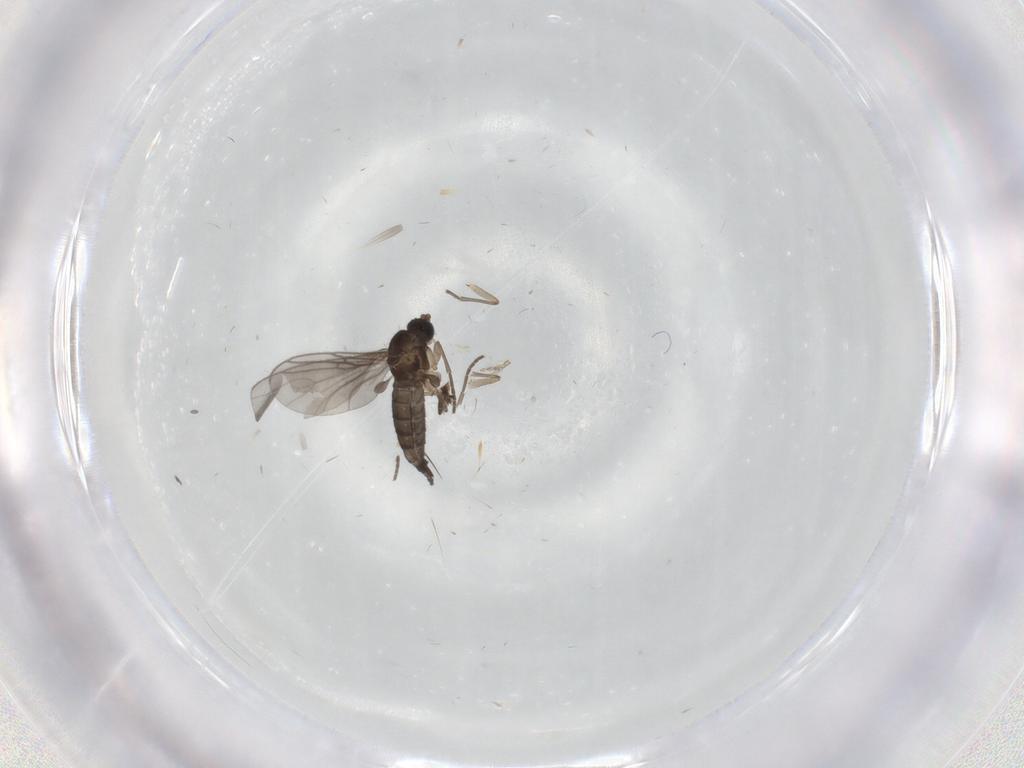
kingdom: Animalia
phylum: Arthropoda
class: Insecta
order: Diptera
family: Sciaridae
